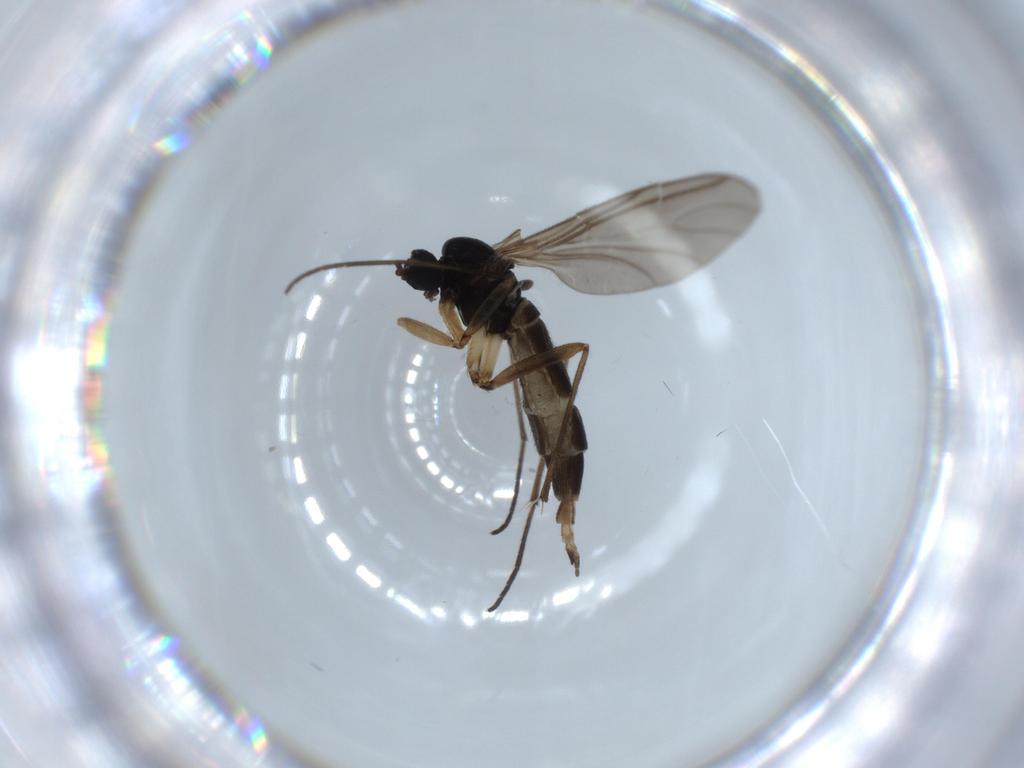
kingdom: Animalia
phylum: Arthropoda
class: Insecta
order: Diptera
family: Sciaridae
